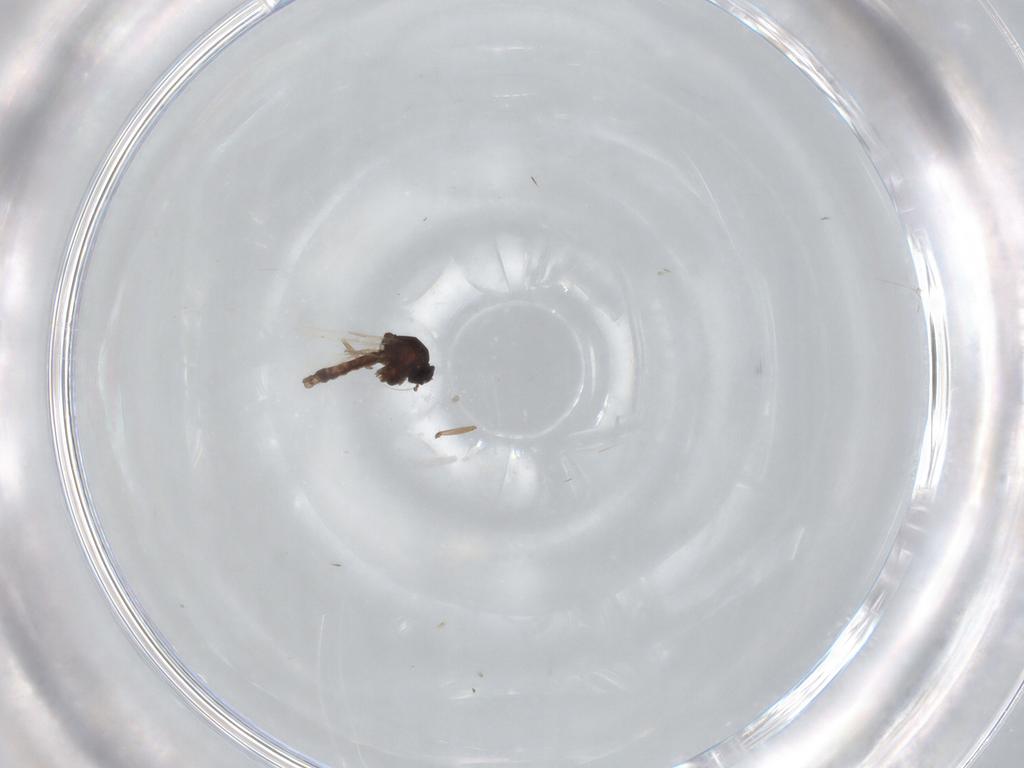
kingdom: Animalia
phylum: Arthropoda
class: Insecta
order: Diptera
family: Ceratopogonidae
